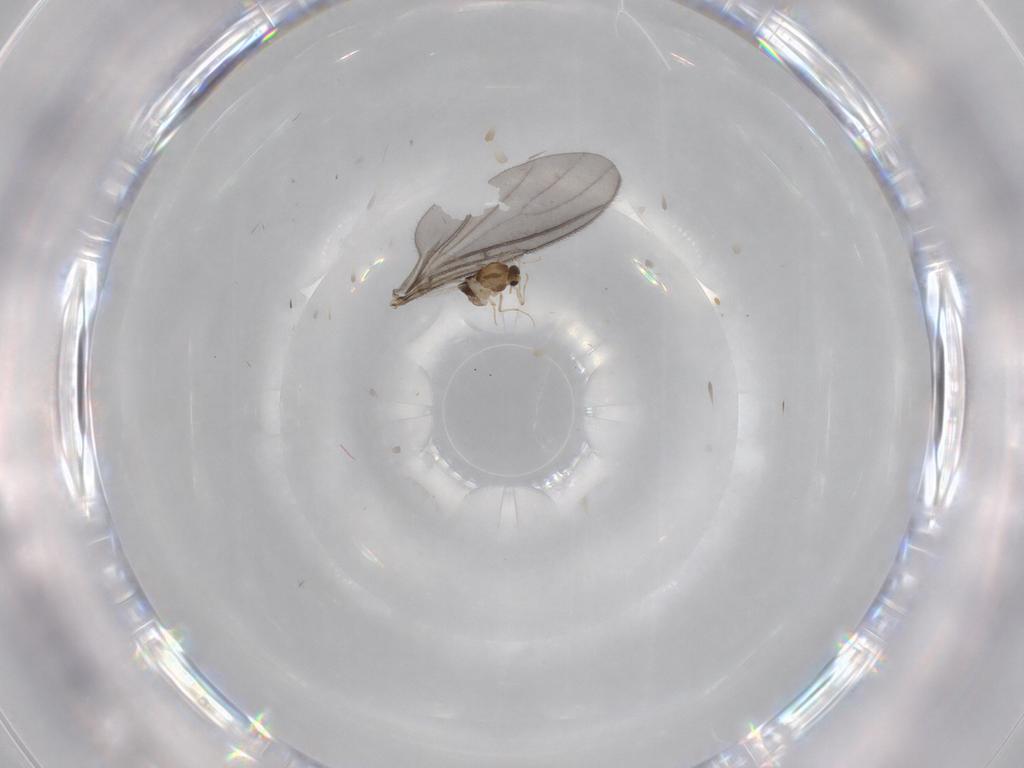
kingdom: Animalia
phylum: Arthropoda
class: Insecta
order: Diptera
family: Chironomidae
